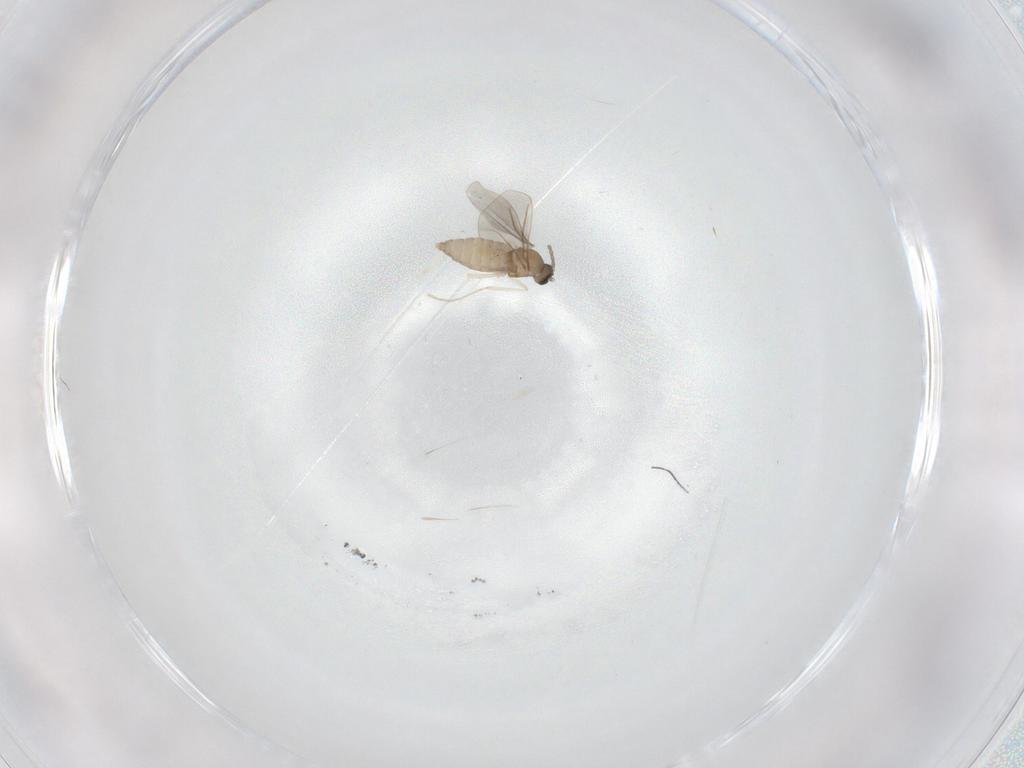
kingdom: Animalia
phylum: Arthropoda
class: Insecta
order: Diptera
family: Cecidomyiidae
